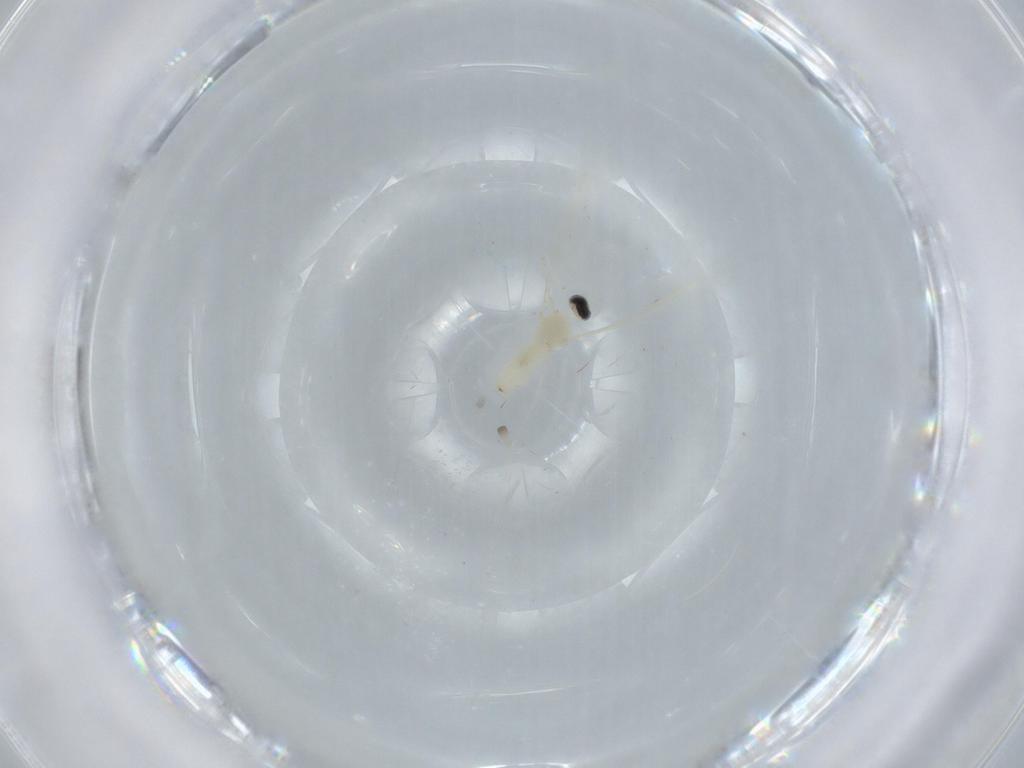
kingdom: Animalia
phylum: Arthropoda
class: Insecta
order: Diptera
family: Cecidomyiidae
